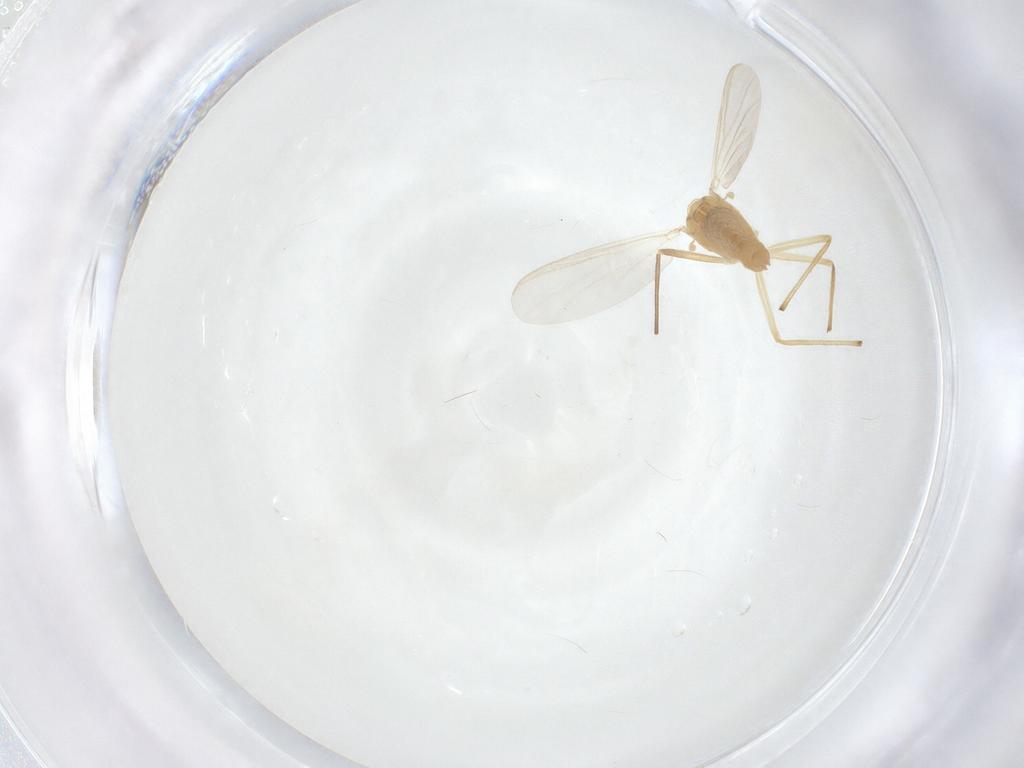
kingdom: Animalia
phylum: Arthropoda
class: Insecta
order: Diptera
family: Chironomidae
